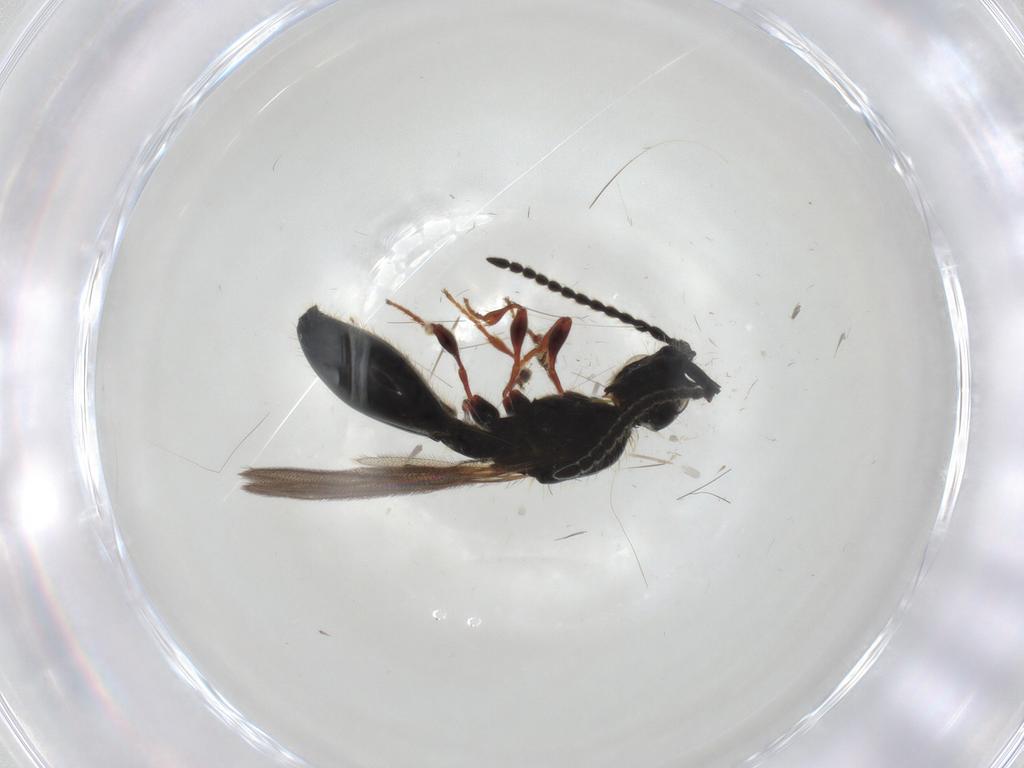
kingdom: Animalia
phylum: Arthropoda
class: Insecta
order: Hymenoptera
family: Diapriidae
